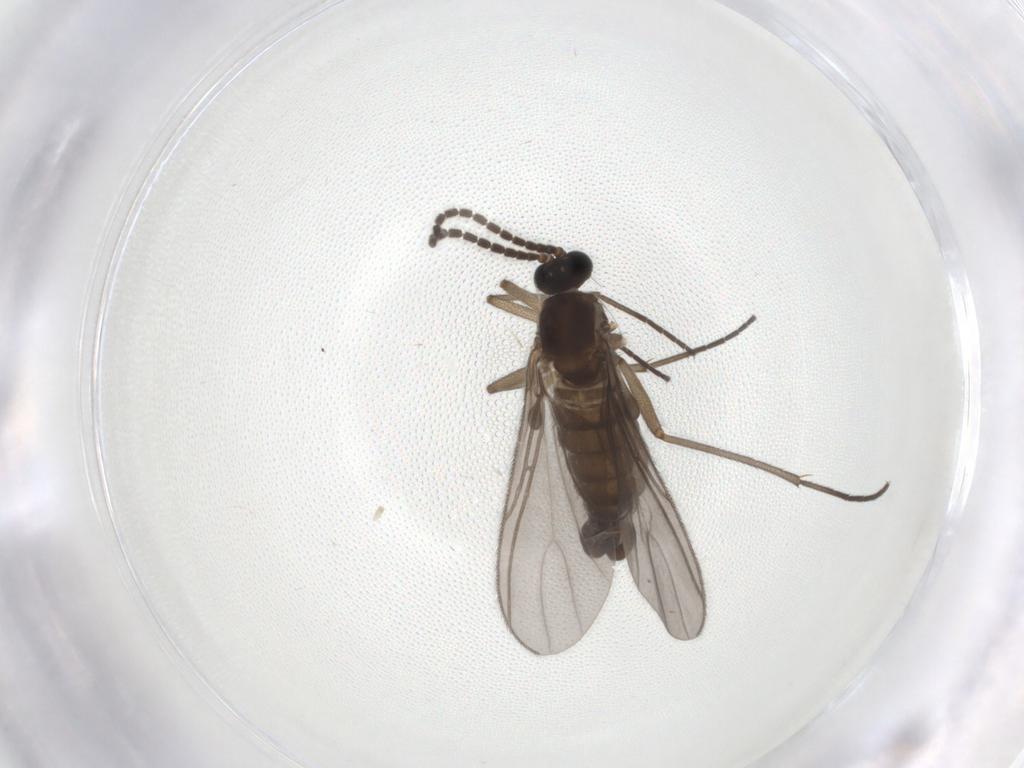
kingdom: Animalia
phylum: Arthropoda
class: Insecta
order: Diptera
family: Sciaridae
